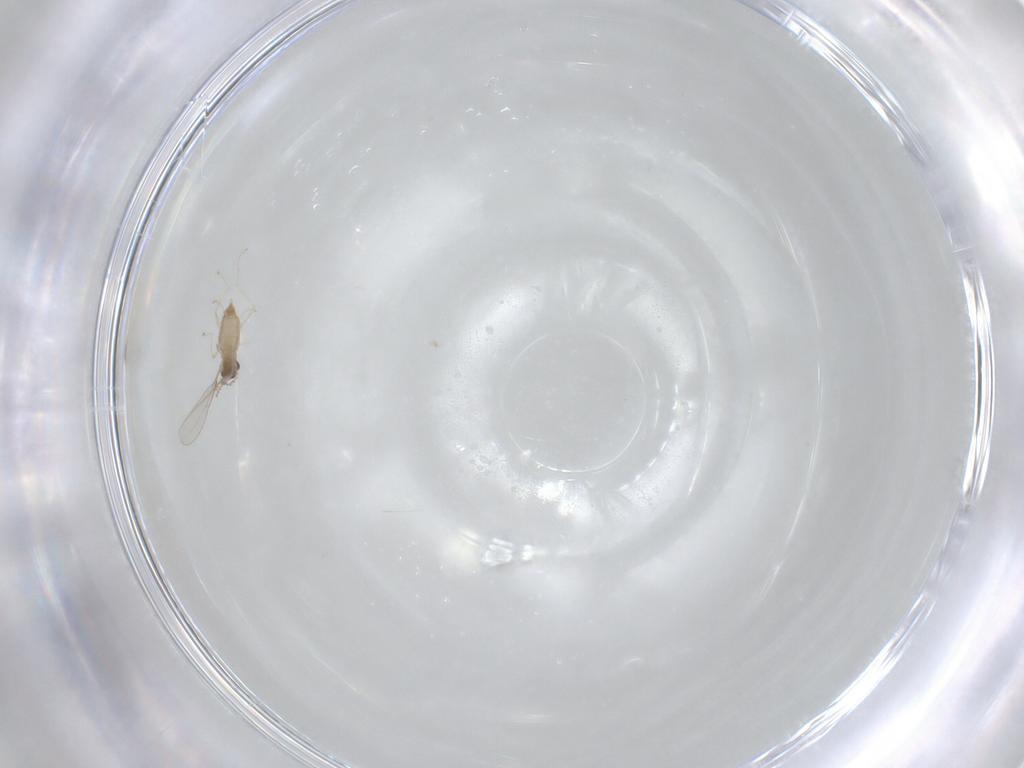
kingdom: Animalia
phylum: Arthropoda
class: Insecta
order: Diptera
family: Cecidomyiidae
